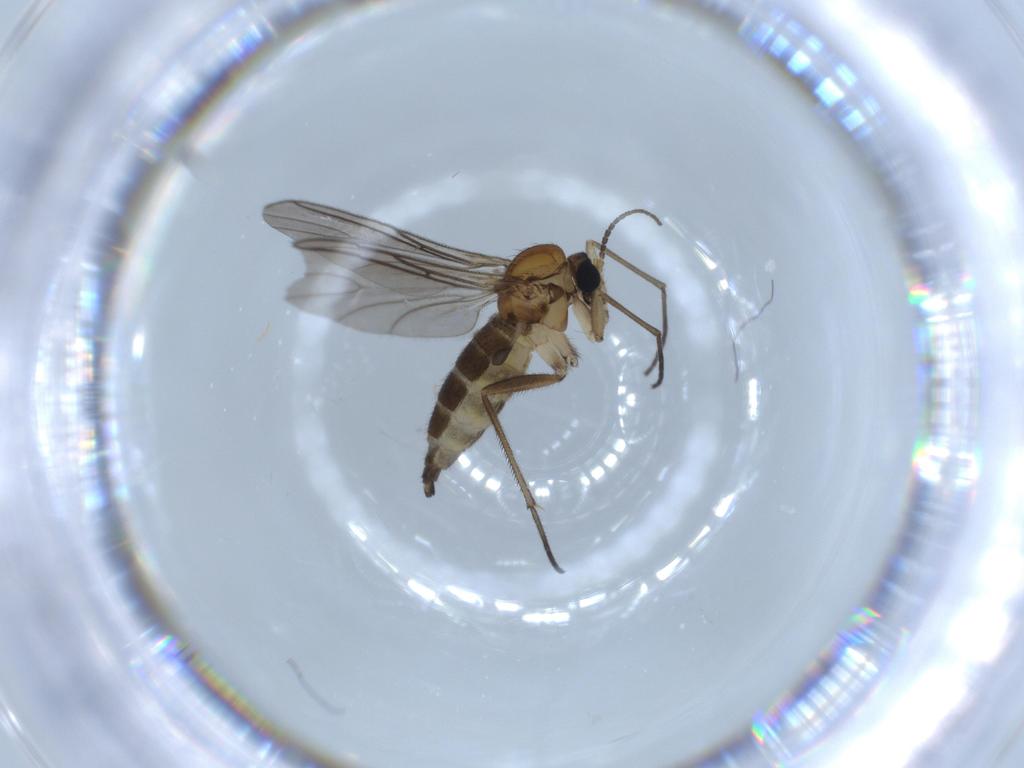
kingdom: Animalia
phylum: Arthropoda
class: Insecta
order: Diptera
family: Sciaridae
